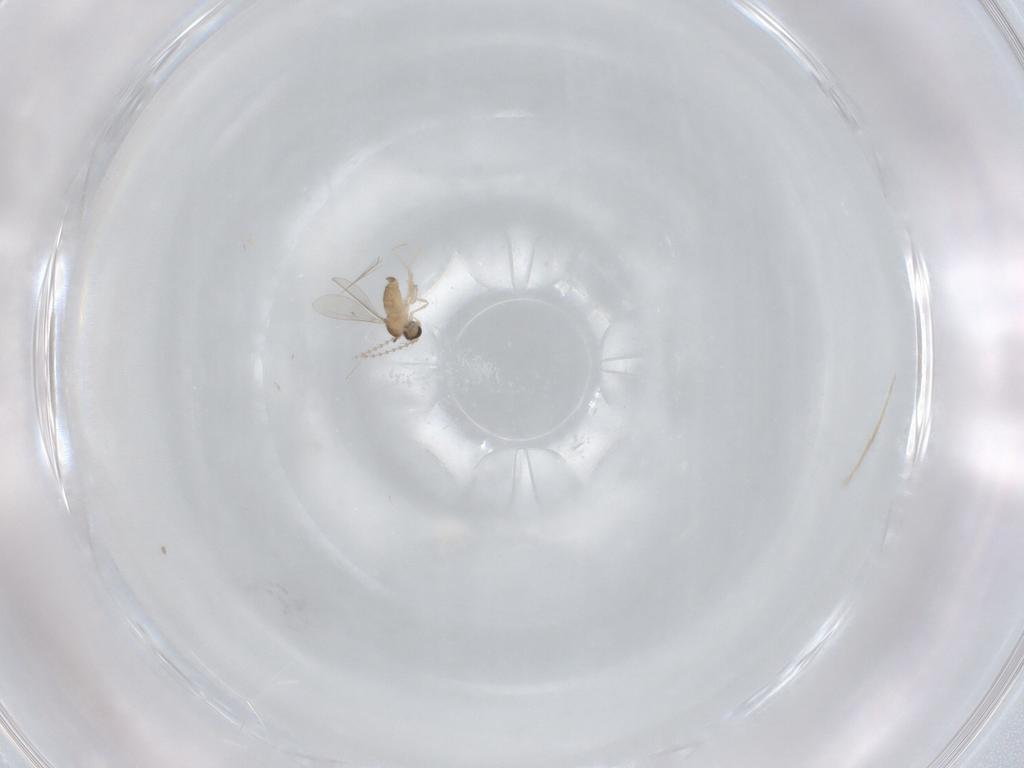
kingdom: Animalia
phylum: Arthropoda
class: Insecta
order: Diptera
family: Cecidomyiidae
